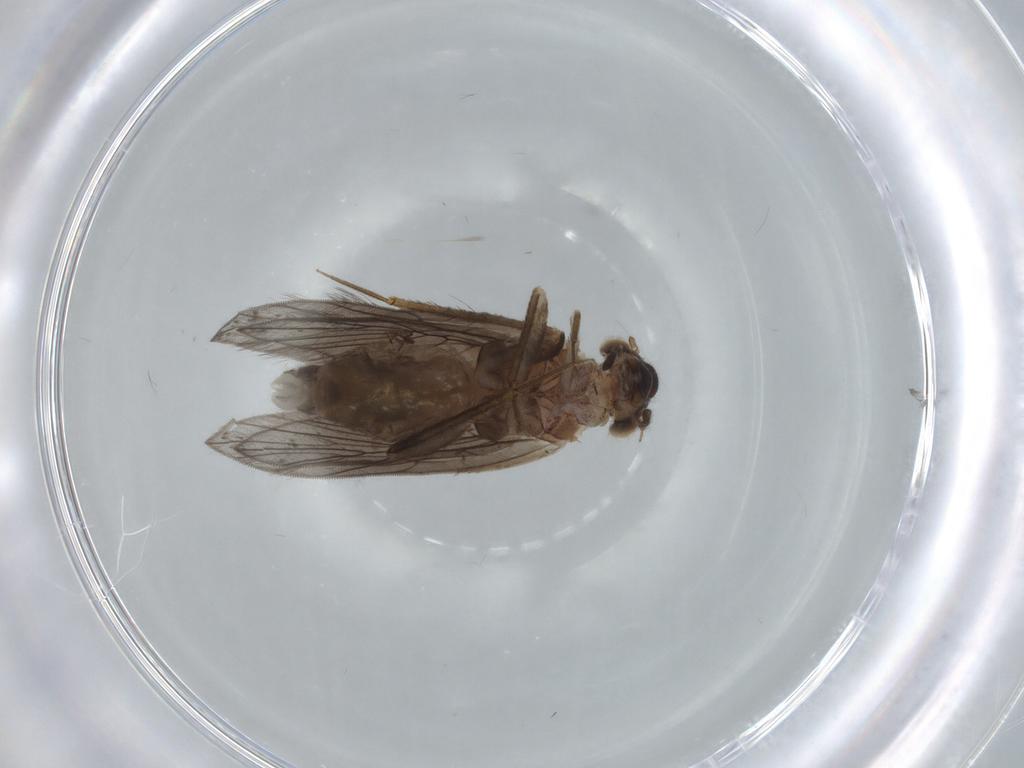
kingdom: Animalia
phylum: Arthropoda
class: Insecta
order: Psocodea
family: Lepidopsocidae
